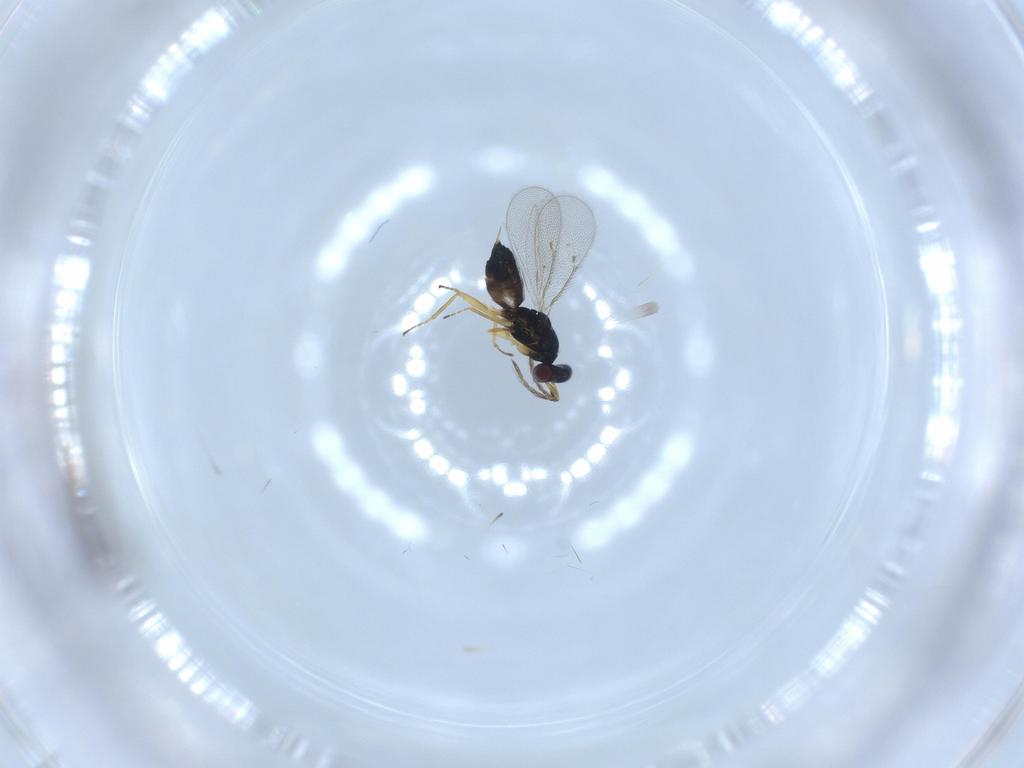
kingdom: Animalia
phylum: Arthropoda
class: Insecta
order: Hymenoptera
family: Eulophidae
